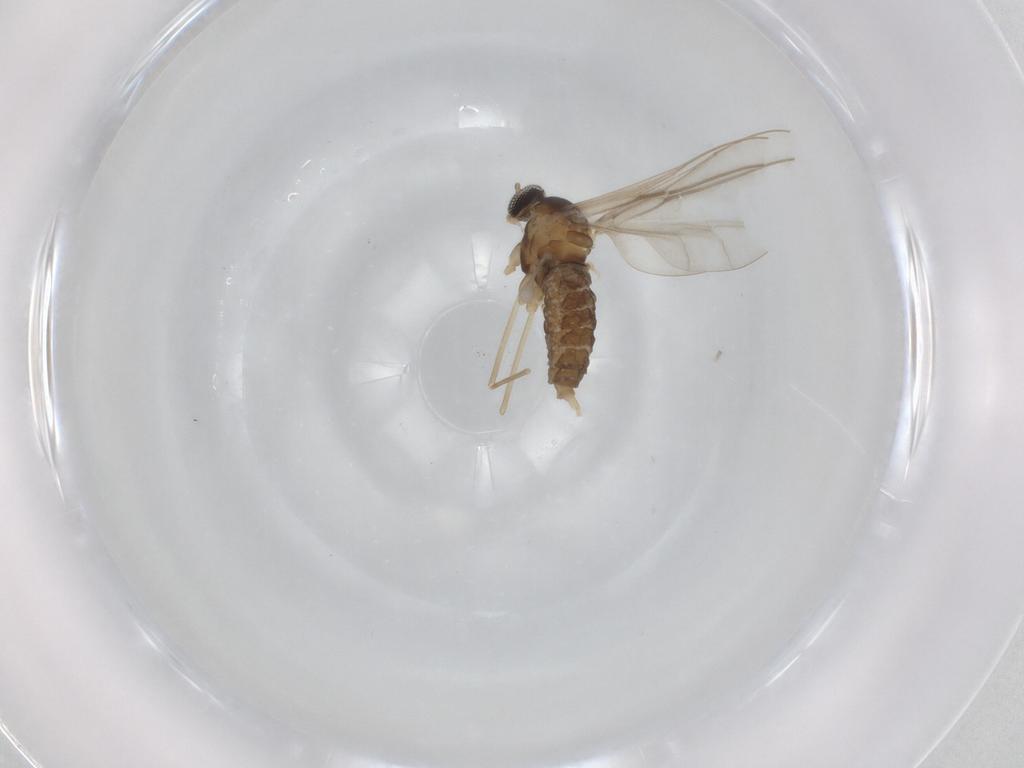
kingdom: Animalia
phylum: Arthropoda
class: Insecta
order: Diptera
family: Cecidomyiidae
